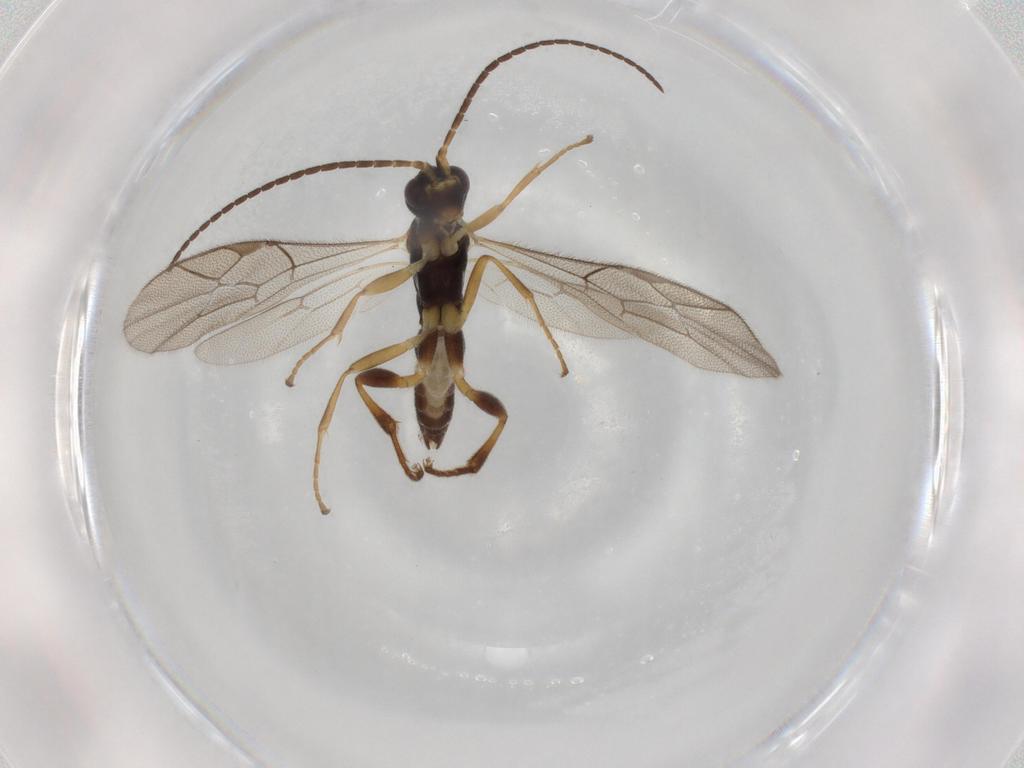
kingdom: Animalia
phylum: Arthropoda
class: Insecta
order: Hymenoptera
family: Ichneumonidae
